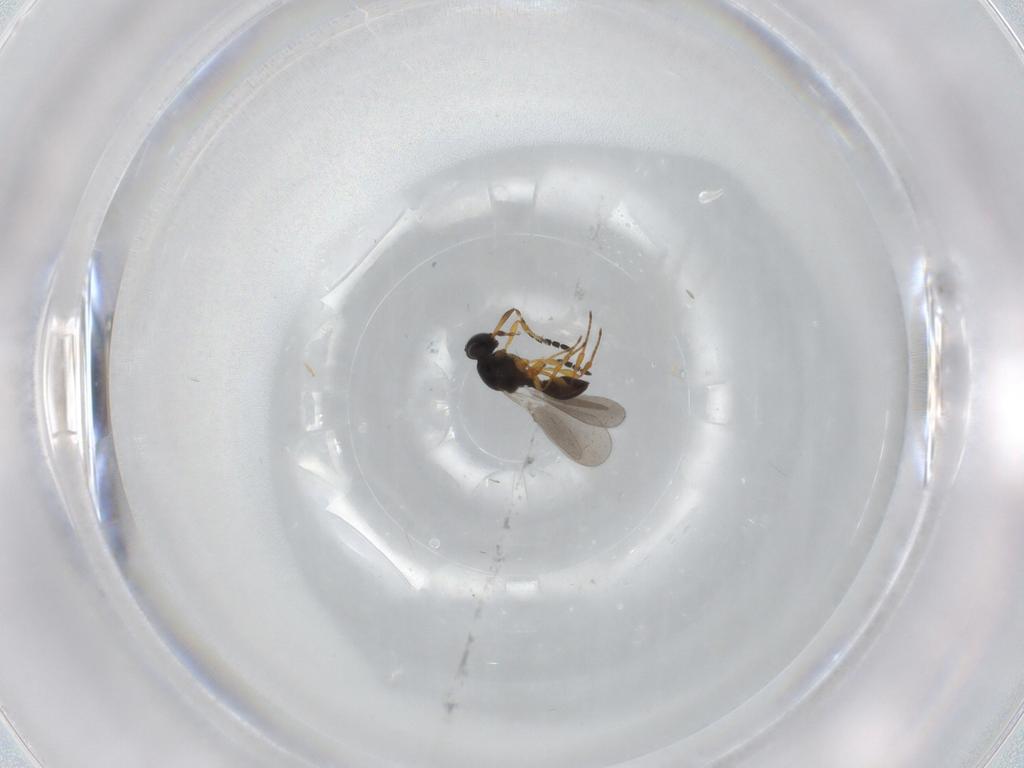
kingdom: Animalia
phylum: Arthropoda
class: Insecta
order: Hymenoptera
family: Platygastridae
